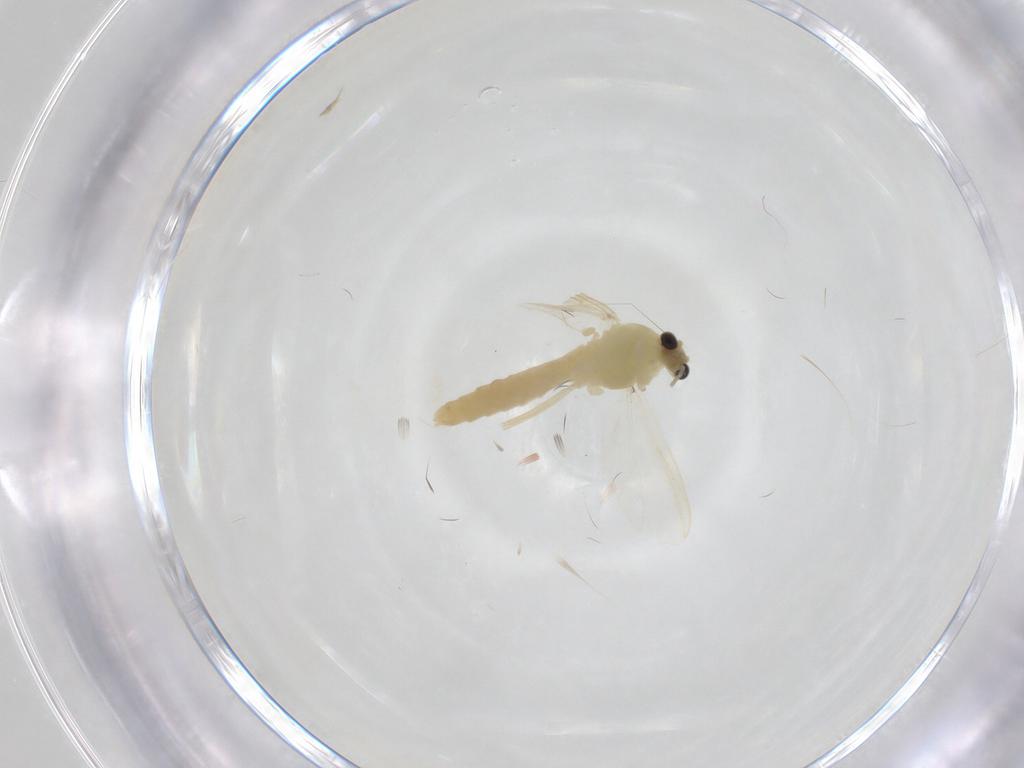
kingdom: Animalia
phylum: Arthropoda
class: Insecta
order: Diptera
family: Chironomidae
